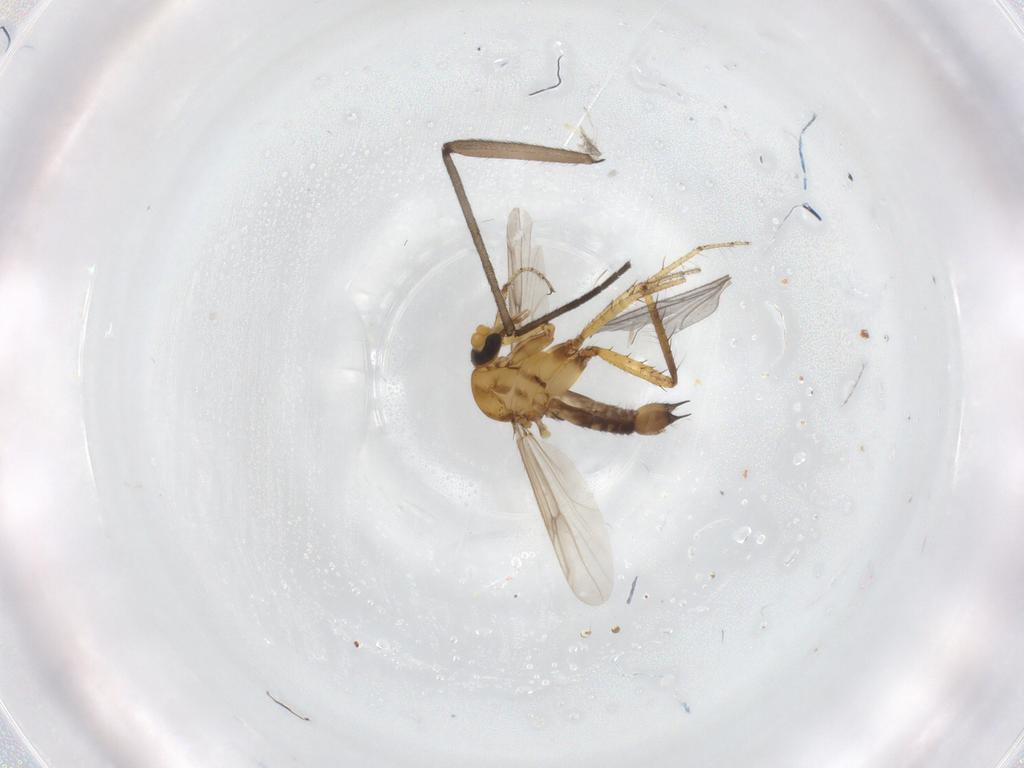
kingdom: Animalia
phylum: Arthropoda
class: Insecta
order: Diptera
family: Ceratopogonidae
